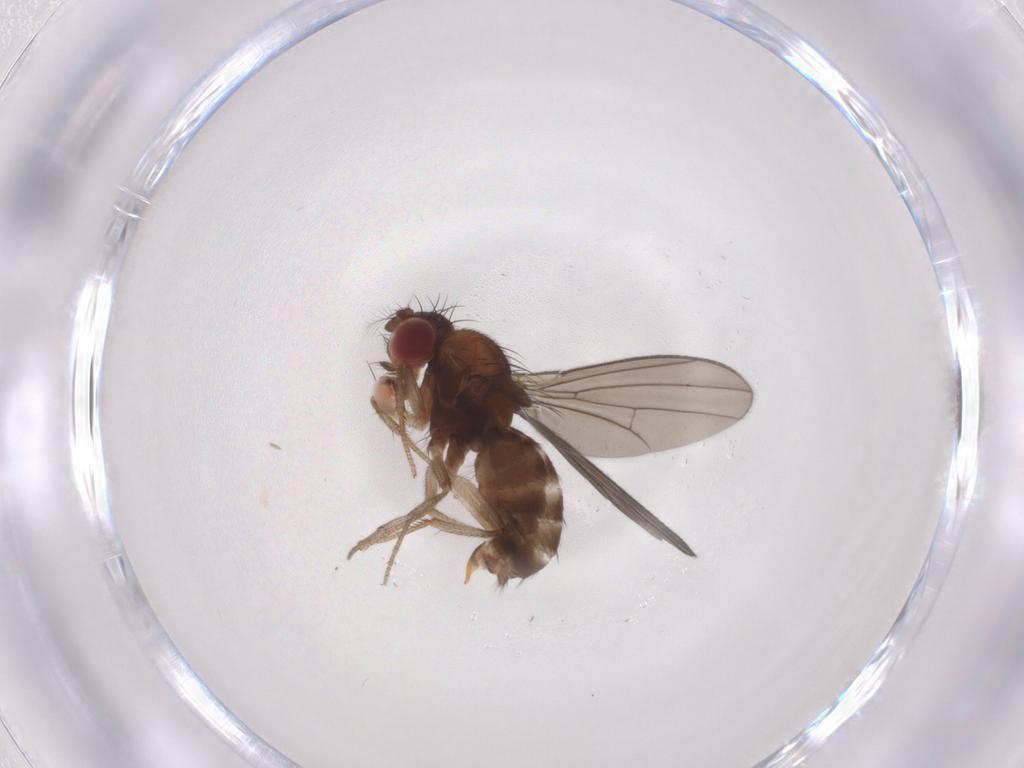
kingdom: Animalia
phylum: Arthropoda
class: Insecta
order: Diptera
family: Drosophilidae
